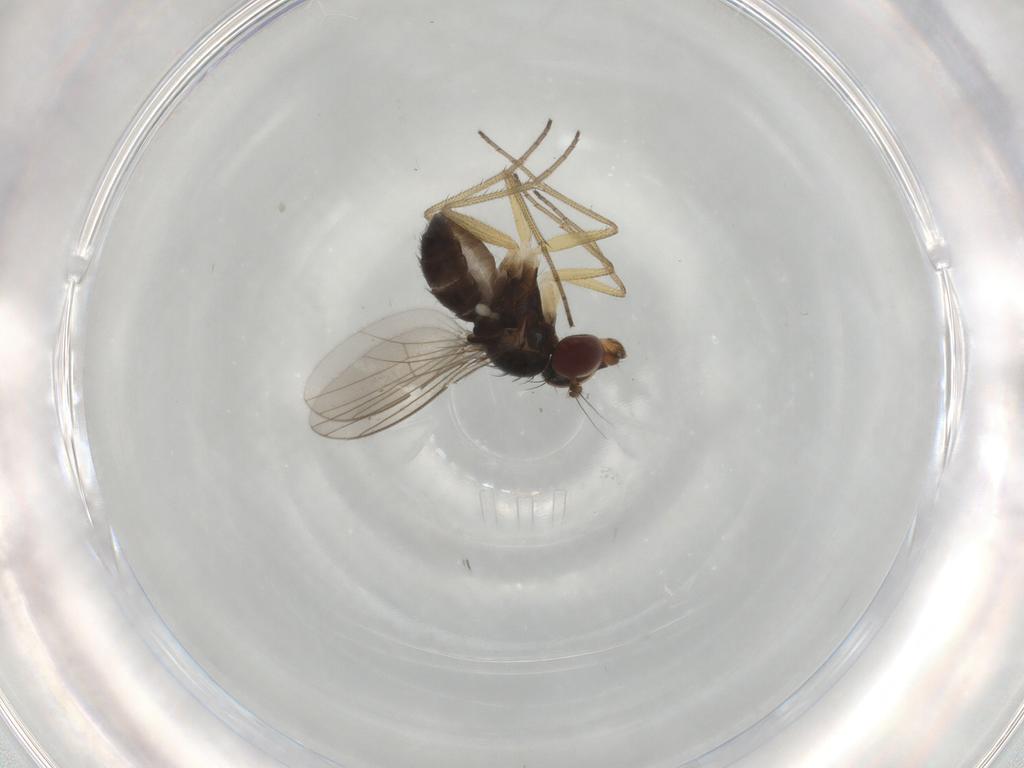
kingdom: Animalia
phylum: Arthropoda
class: Insecta
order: Diptera
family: Dolichopodidae
